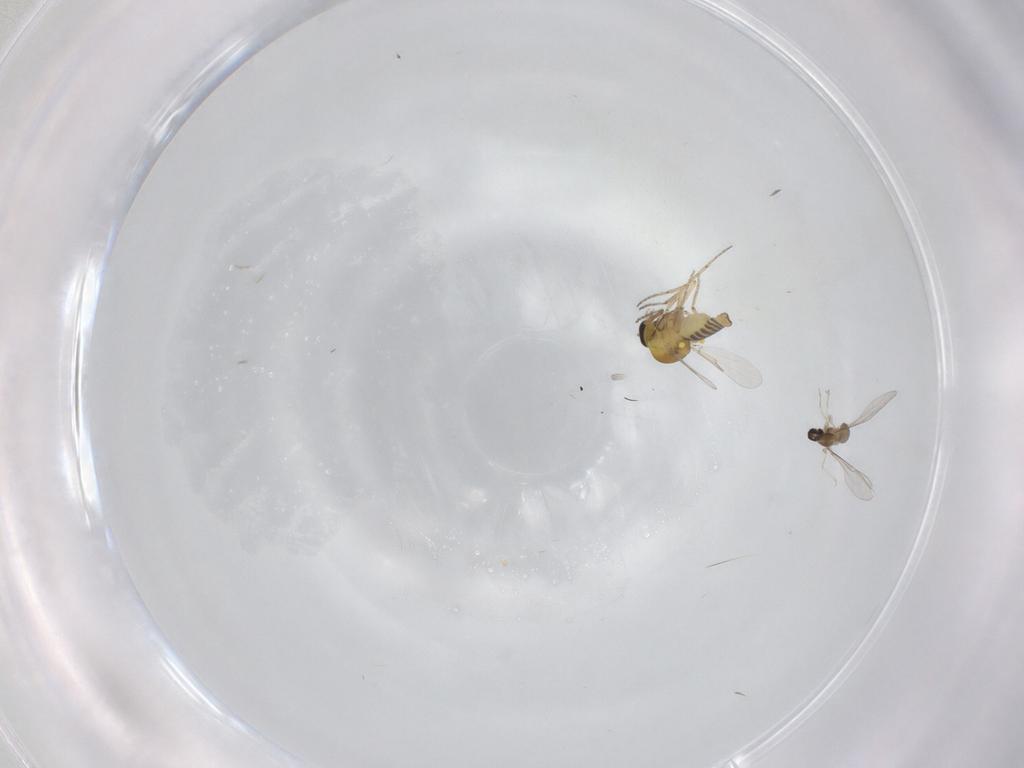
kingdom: Animalia
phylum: Arthropoda
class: Insecta
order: Diptera
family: Cecidomyiidae
